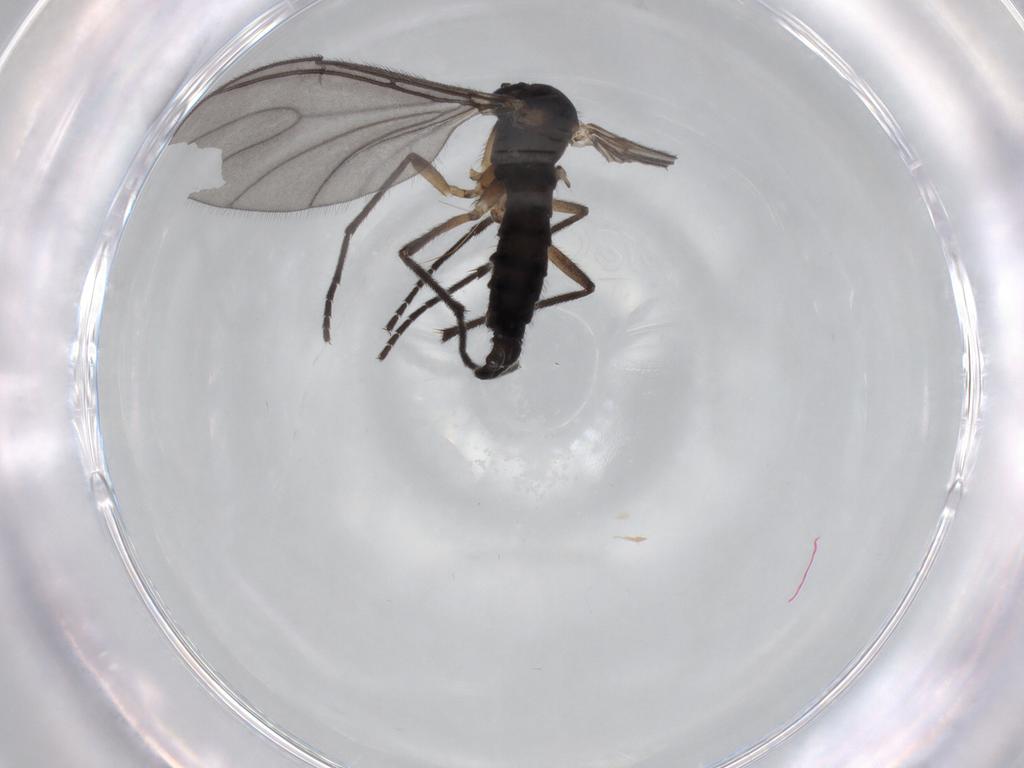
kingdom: Animalia
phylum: Arthropoda
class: Insecta
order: Diptera
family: Sciaridae
